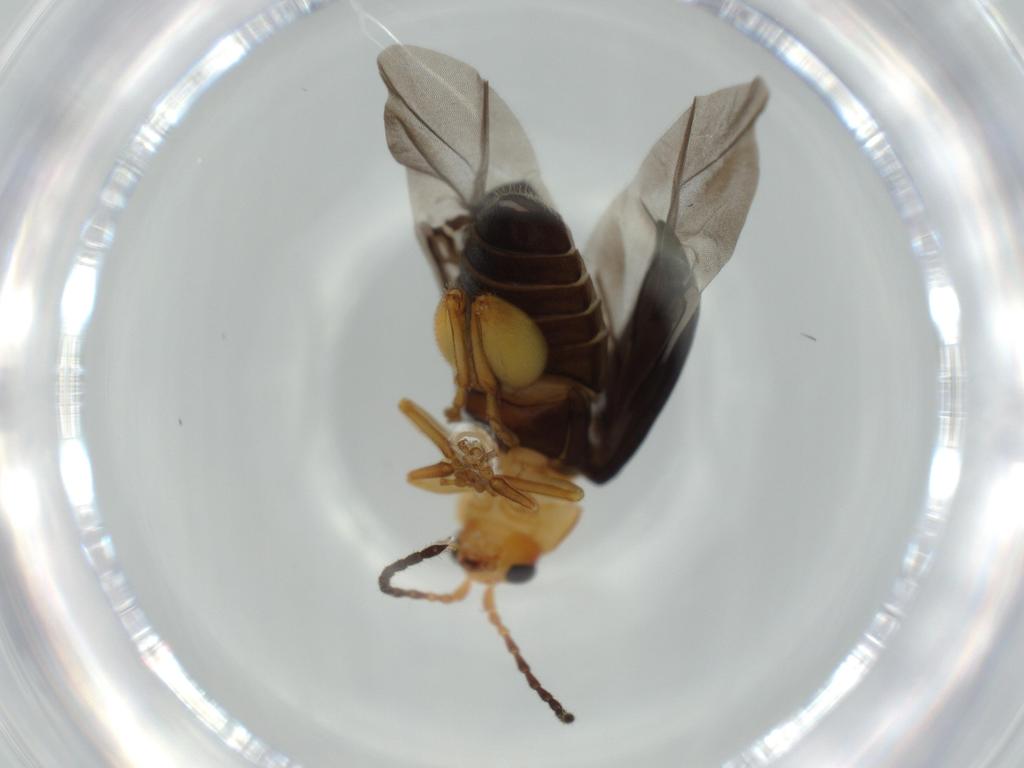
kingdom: Animalia
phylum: Arthropoda
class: Insecta
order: Coleoptera
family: Chrysomelidae
